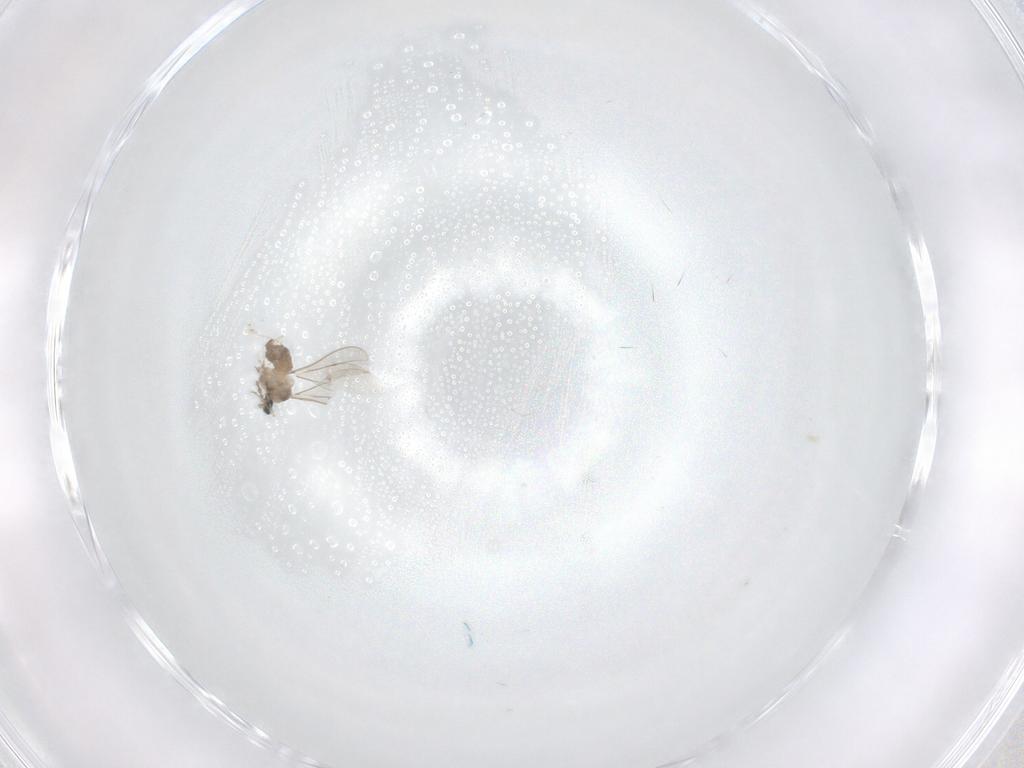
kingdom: Animalia
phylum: Arthropoda
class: Insecta
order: Diptera
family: Cecidomyiidae
